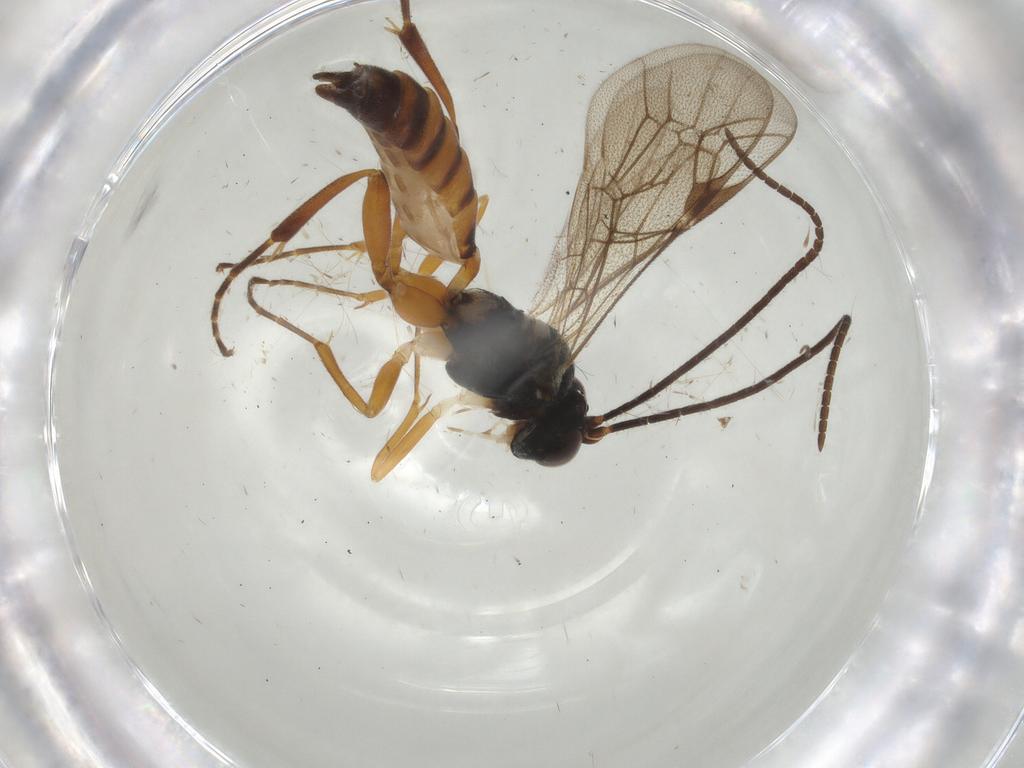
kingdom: Animalia
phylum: Arthropoda
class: Insecta
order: Hymenoptera
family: Ichneumonidae
